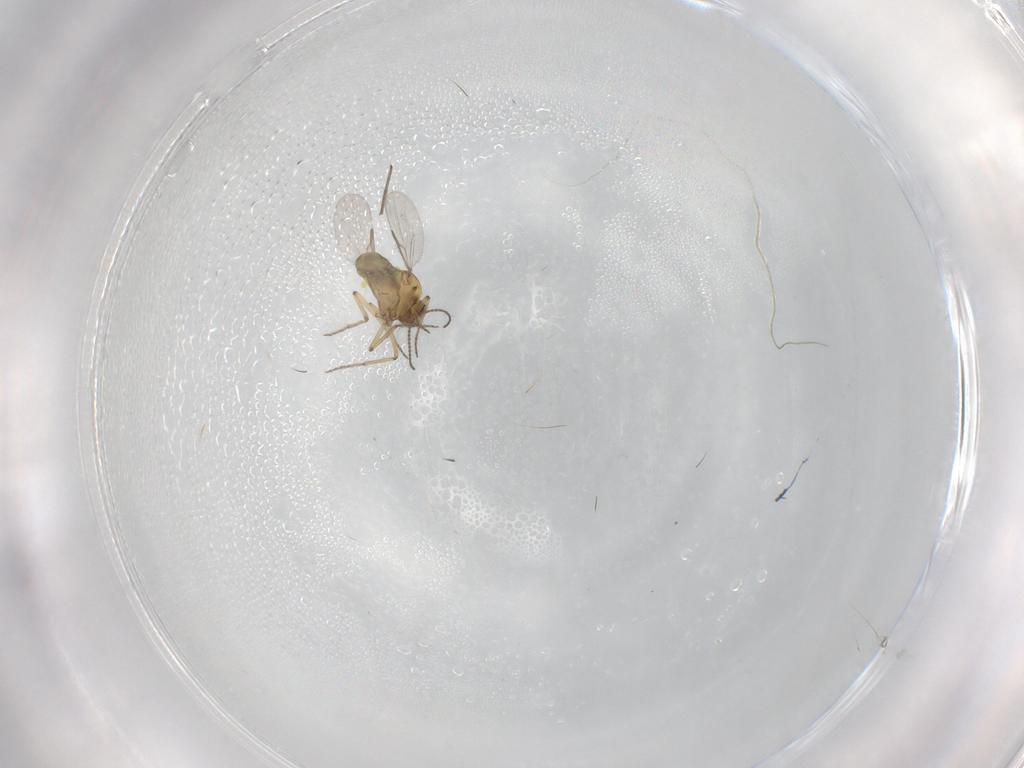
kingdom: Animalia
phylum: Arthropoda
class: Insecta
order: Diptera
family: Ceratopogonidae
